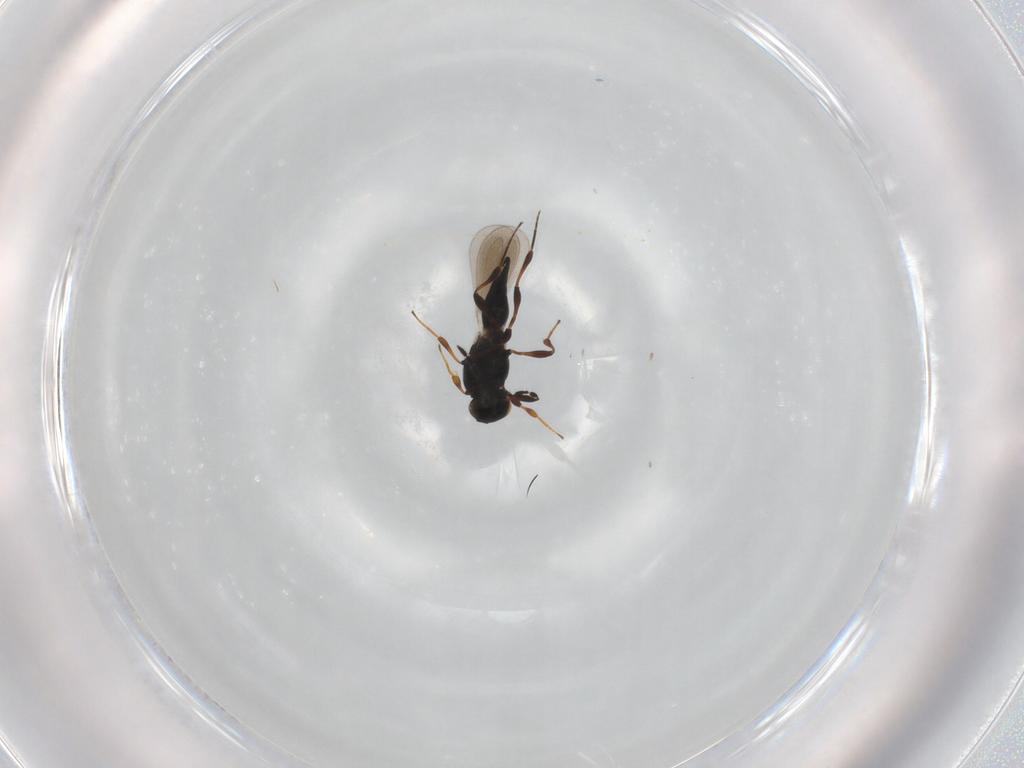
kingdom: Animalia
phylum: Arthropoda
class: Insecta
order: Hymenoptera
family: Platygastridae
